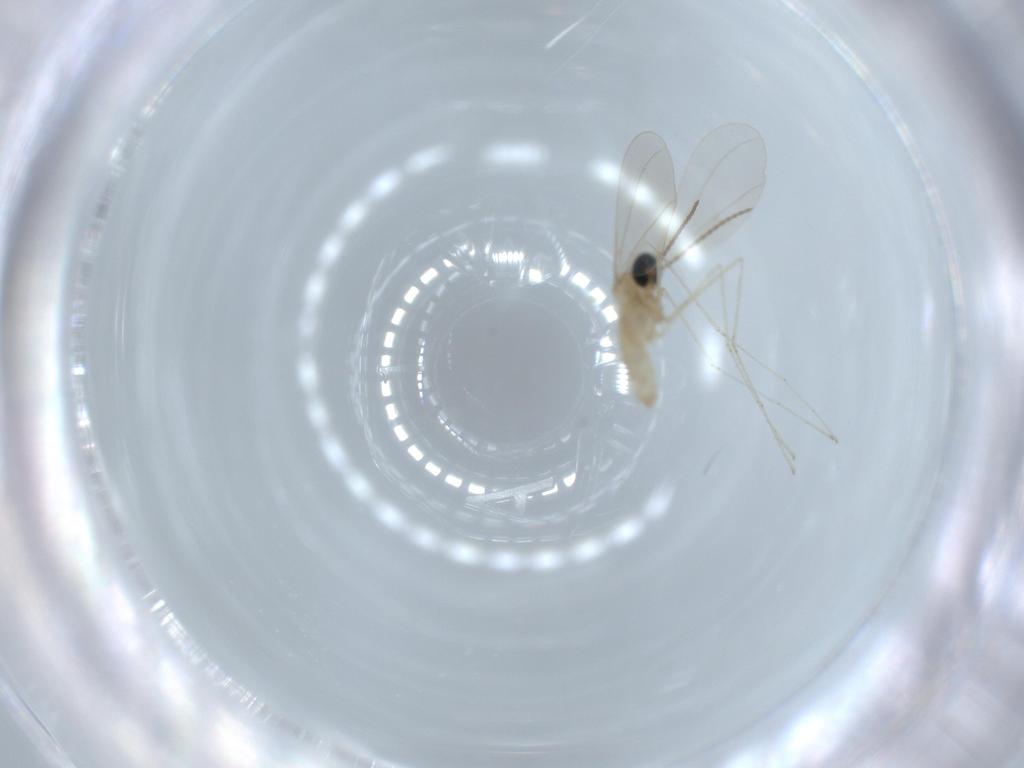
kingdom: Animalia
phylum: Arthropoda
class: Insecta
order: Diptera
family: Cecidomyiidae
